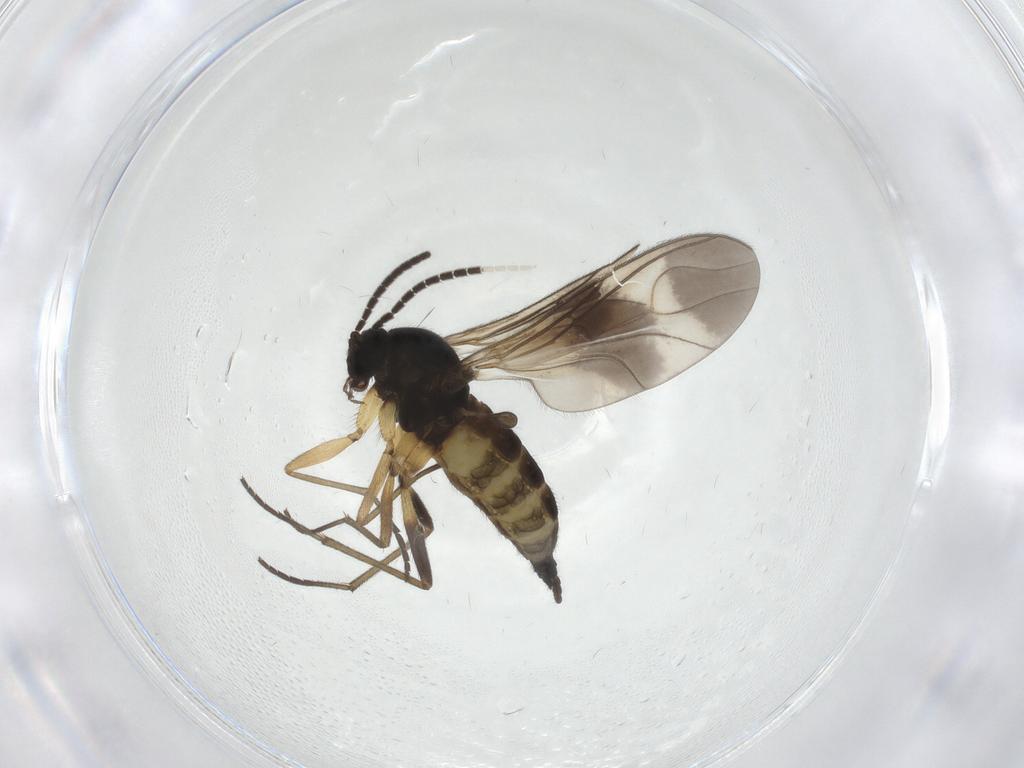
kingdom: Animalia
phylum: Arthropoda
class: Insecta
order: Diptera
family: Sciaridae
